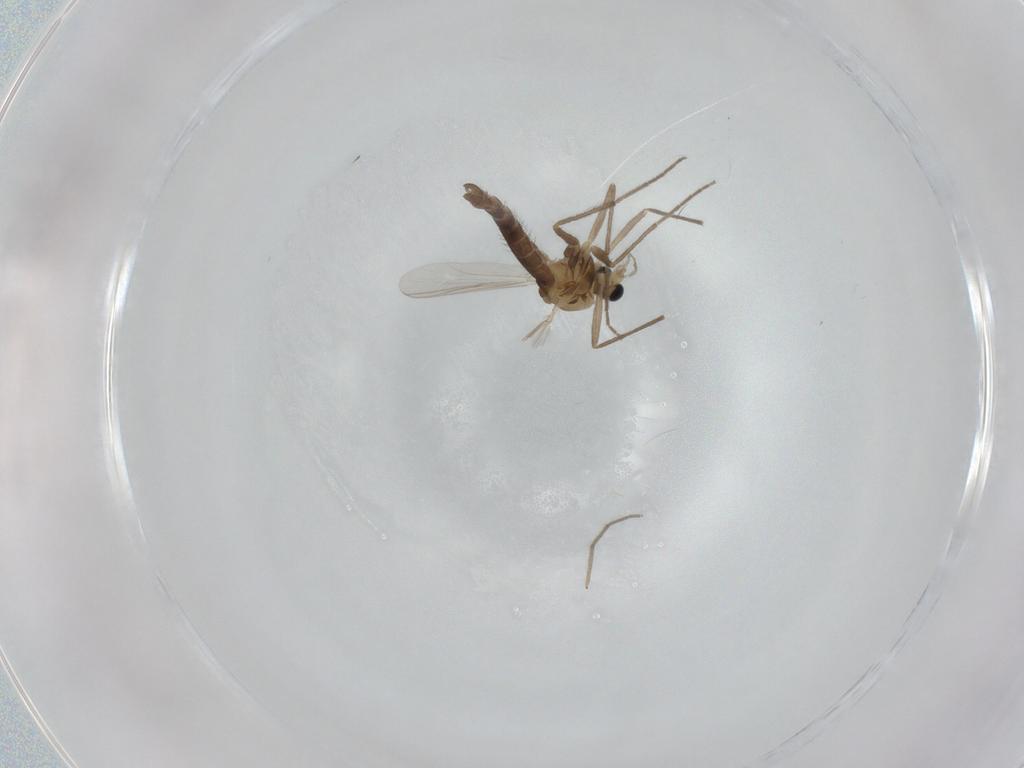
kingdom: Animalia
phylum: Arthropoda
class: Insecta
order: Diptera
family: Chironomidae
